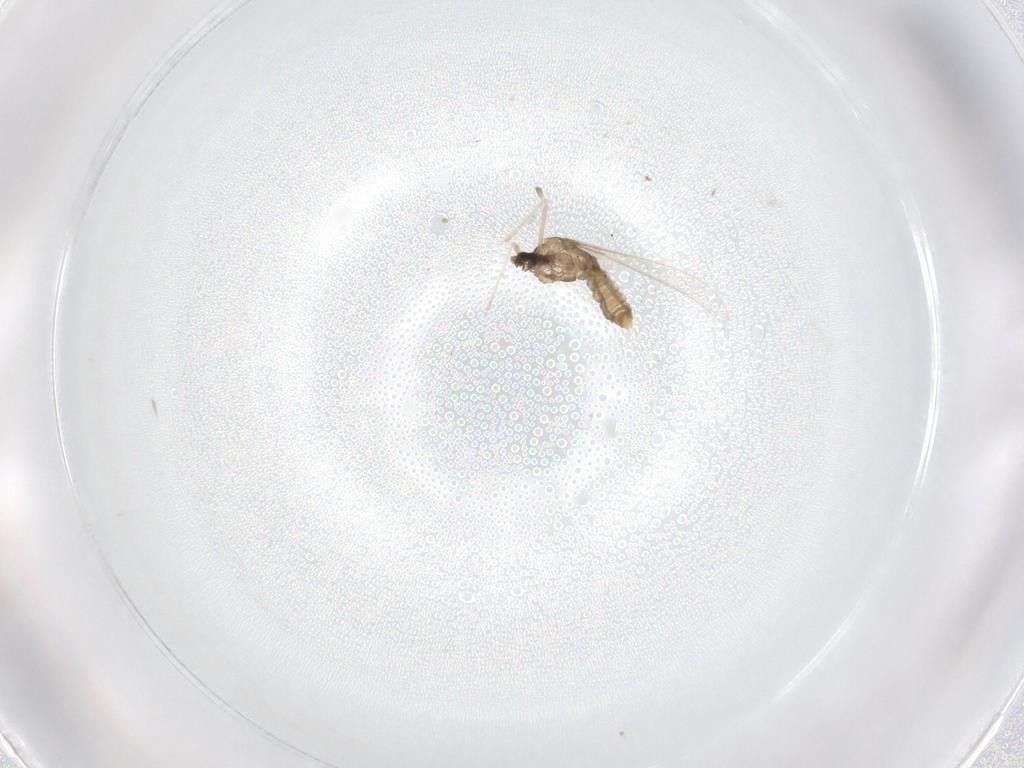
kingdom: Animalia
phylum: Arthropoda
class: Insecta
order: Diptera
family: Cecidomyiidae
